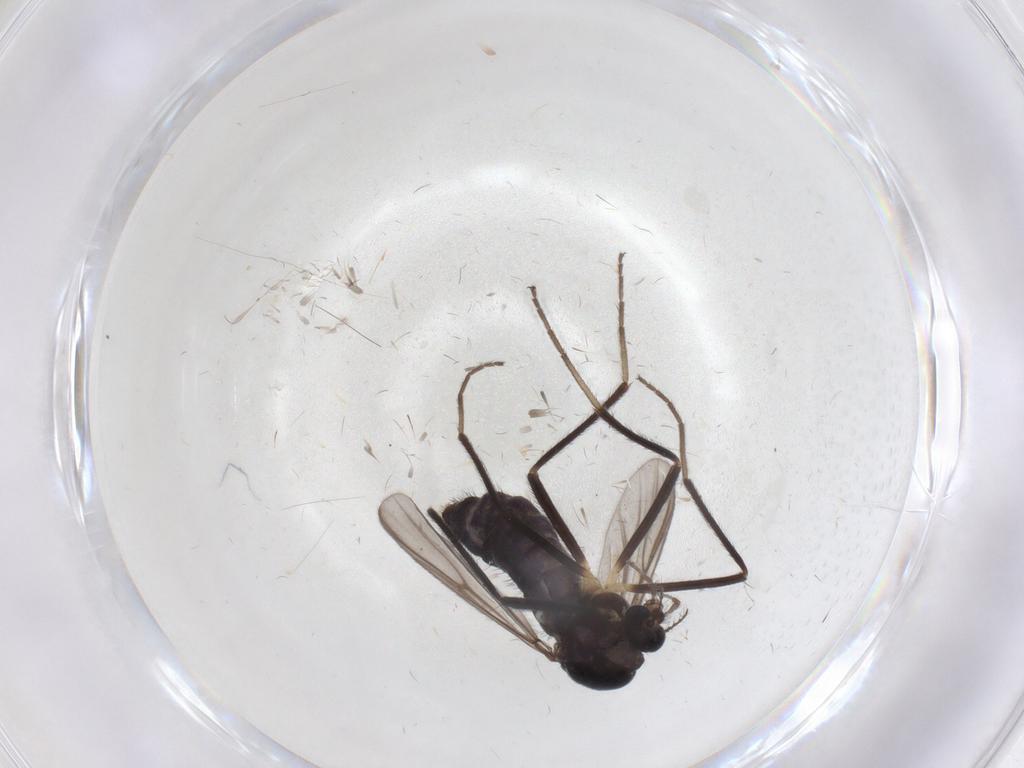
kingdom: Animalia
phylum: Arthropoda
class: Insecta
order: Diptera
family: Chironomidae
